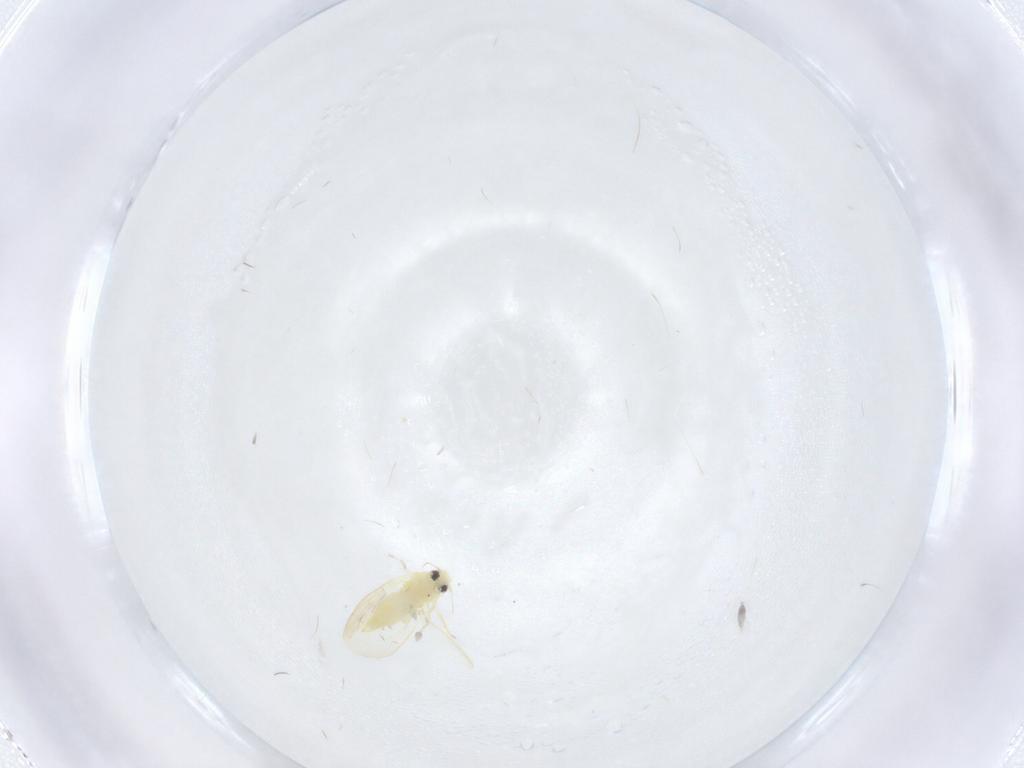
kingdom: Animalia
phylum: Arthropoda
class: Insecta
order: Hemiptera
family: Aleyrodidae
